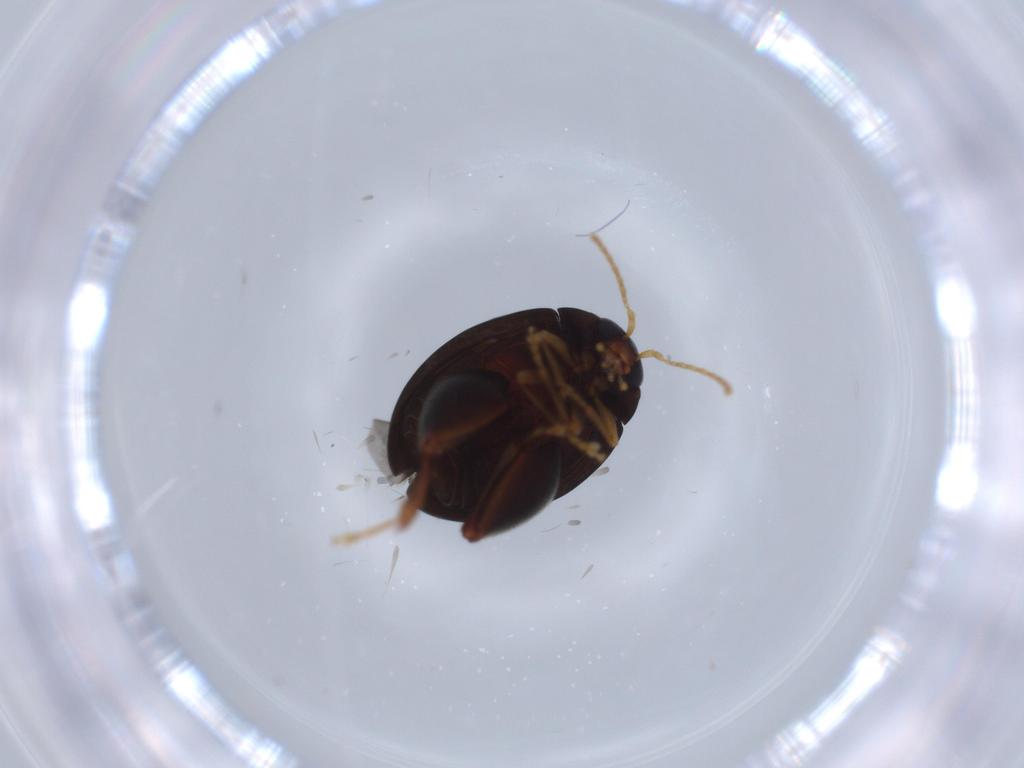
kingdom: Animalia
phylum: Arthropoda
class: Insecta
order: Coleoptera
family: Chrysomelidae
